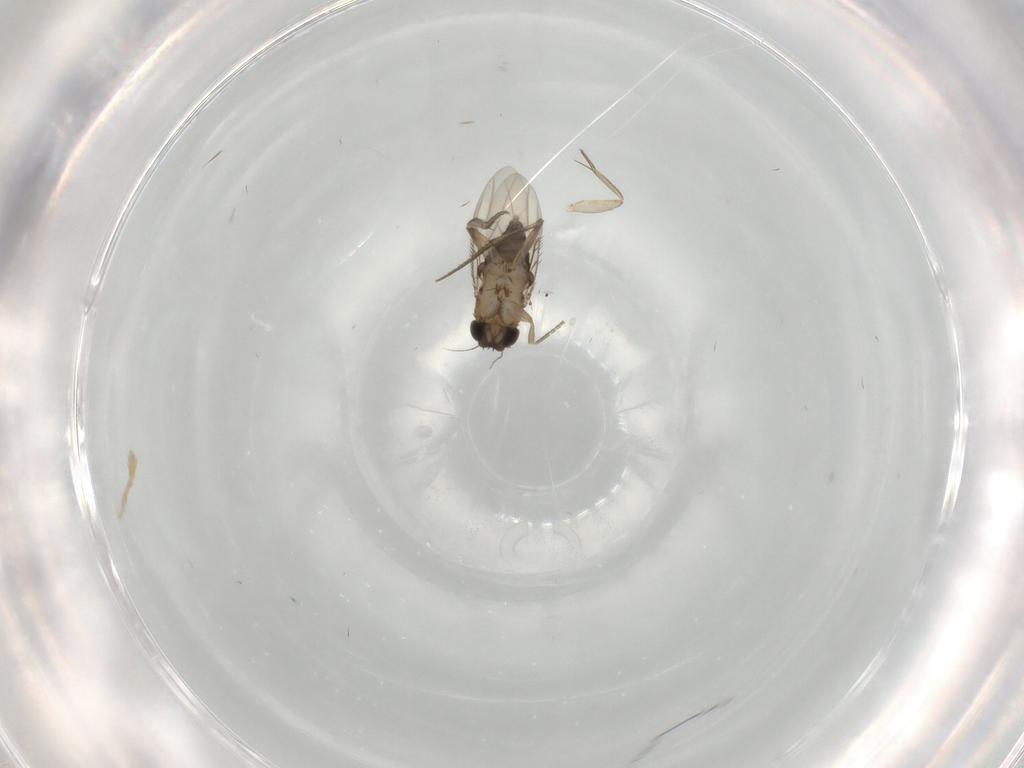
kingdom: Animalia
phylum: Arthropoda
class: Insecta
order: Diptera
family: Phoridae
